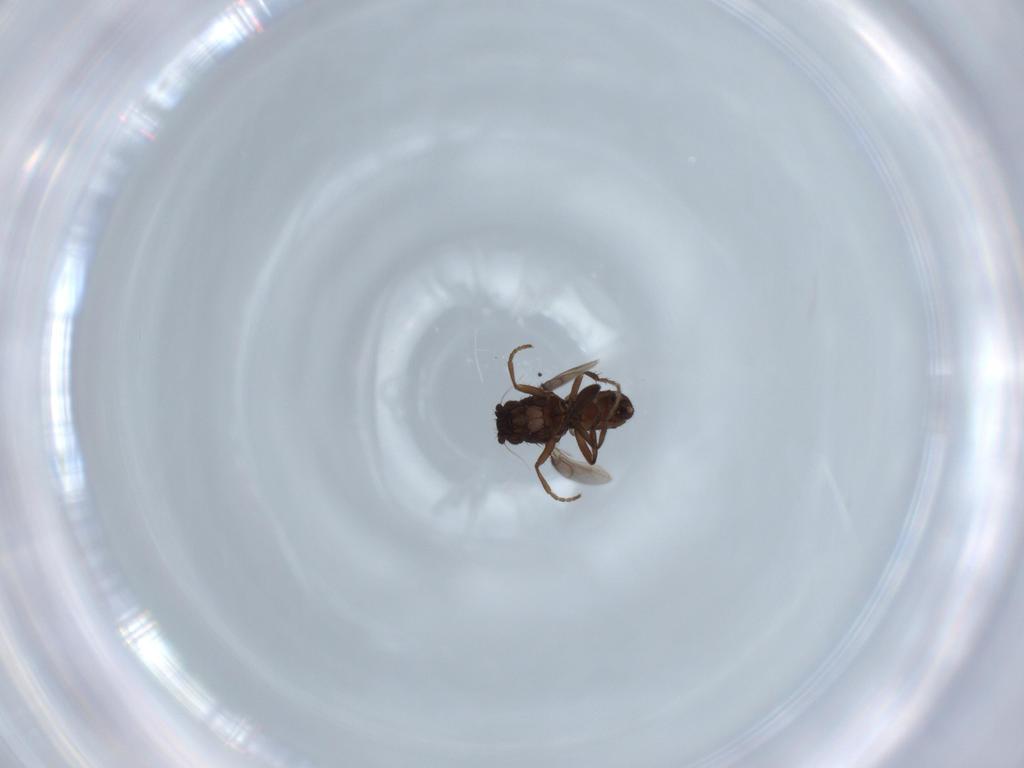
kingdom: Animalia
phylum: Arthropoda
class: Insecta
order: Diptera
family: Sphaeroceridae
